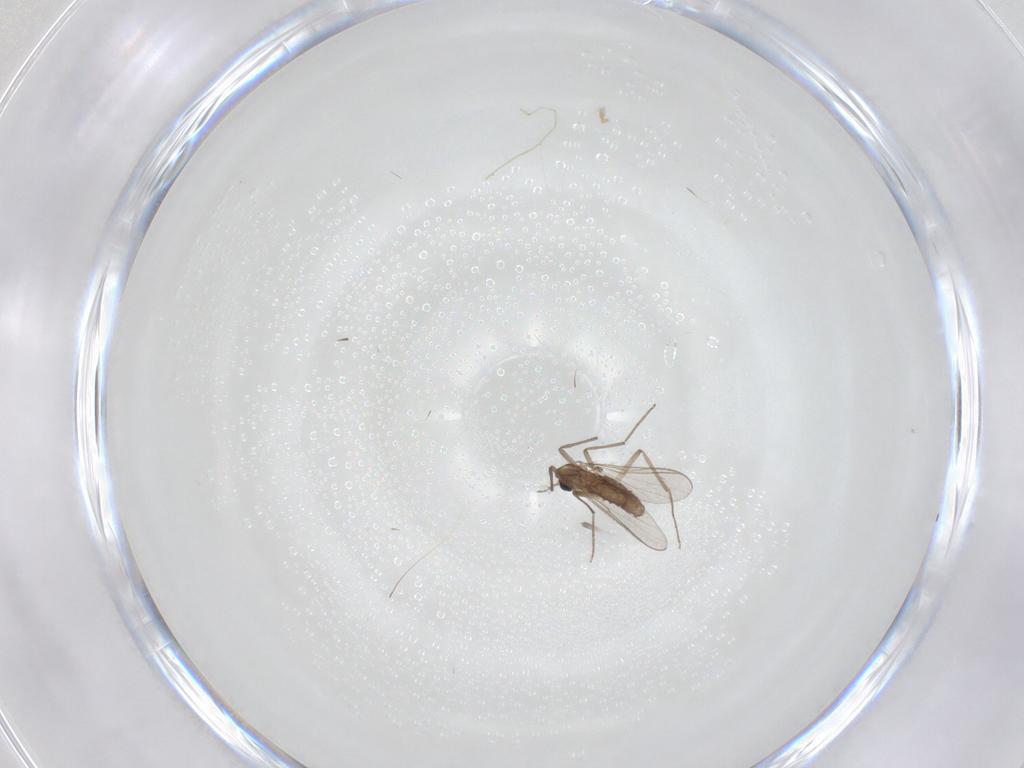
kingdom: Animalia
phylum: Arthropoda
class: Insecta
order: Diptera
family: Chironomidae
